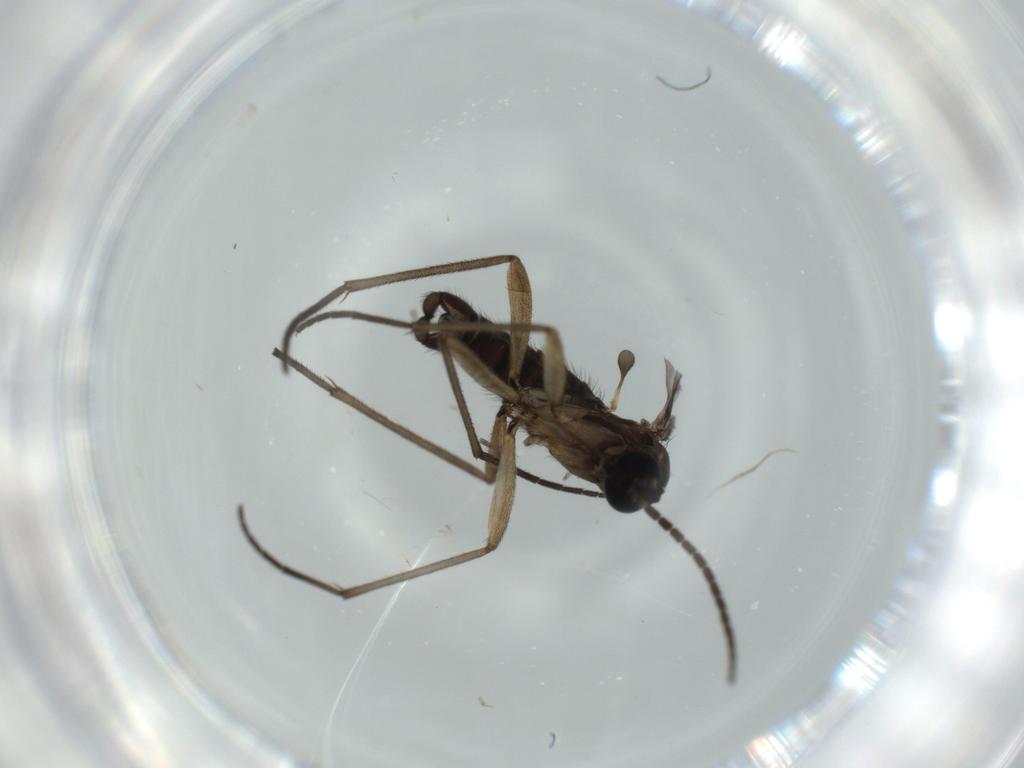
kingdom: Animalia
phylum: Arthropoda
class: Insecta
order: Diptera
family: Sciaridae
